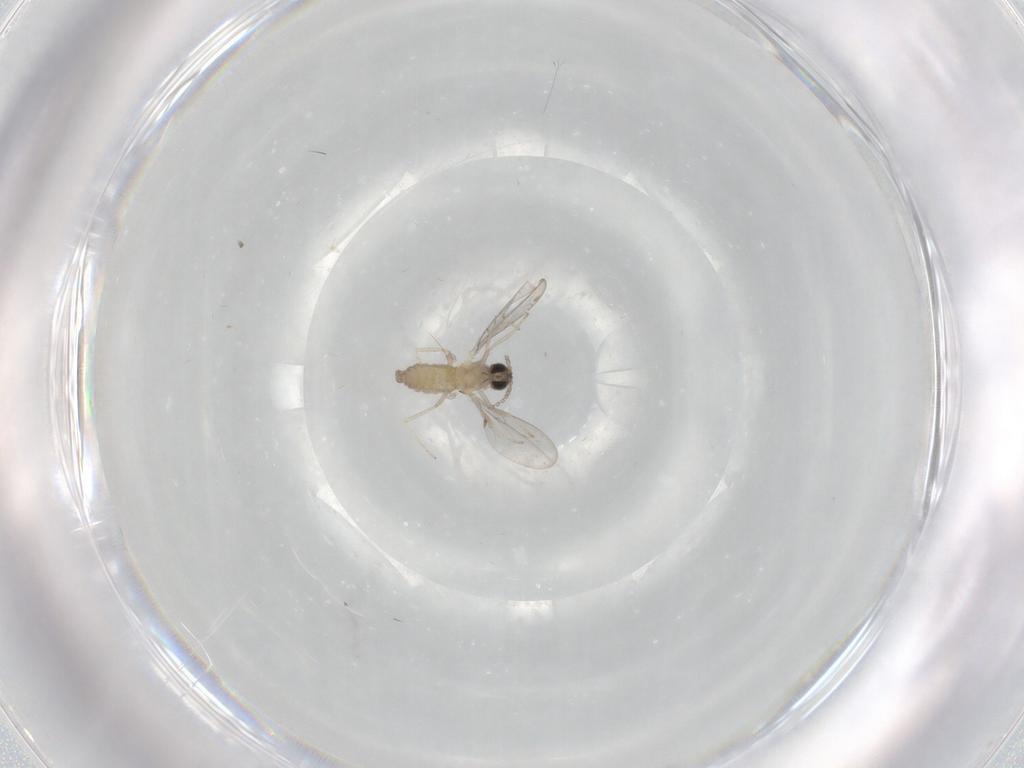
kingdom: Animalia
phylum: Arthropoda
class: Insecta
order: Diptera
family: Cecidomyiidae
